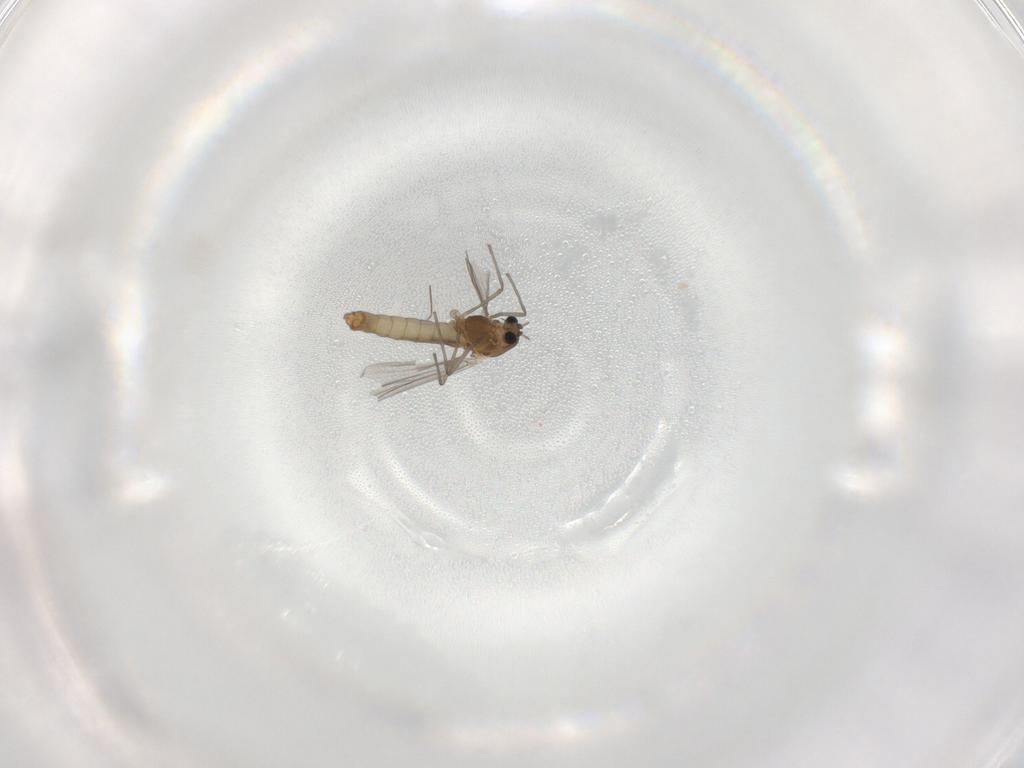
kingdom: Animalia
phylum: Arthropoda
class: Insecta
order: Diptera
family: Chironomidae
